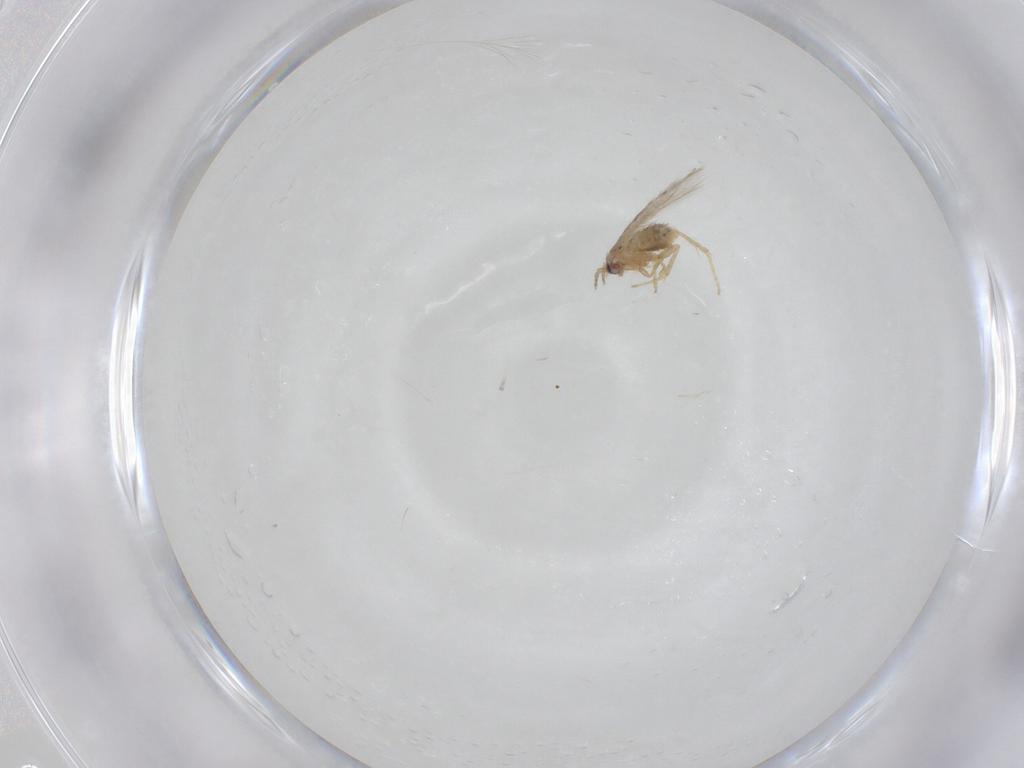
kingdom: Animalia
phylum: Arthropoda
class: Insecta
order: Lepidoptera
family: Nepticulidae
